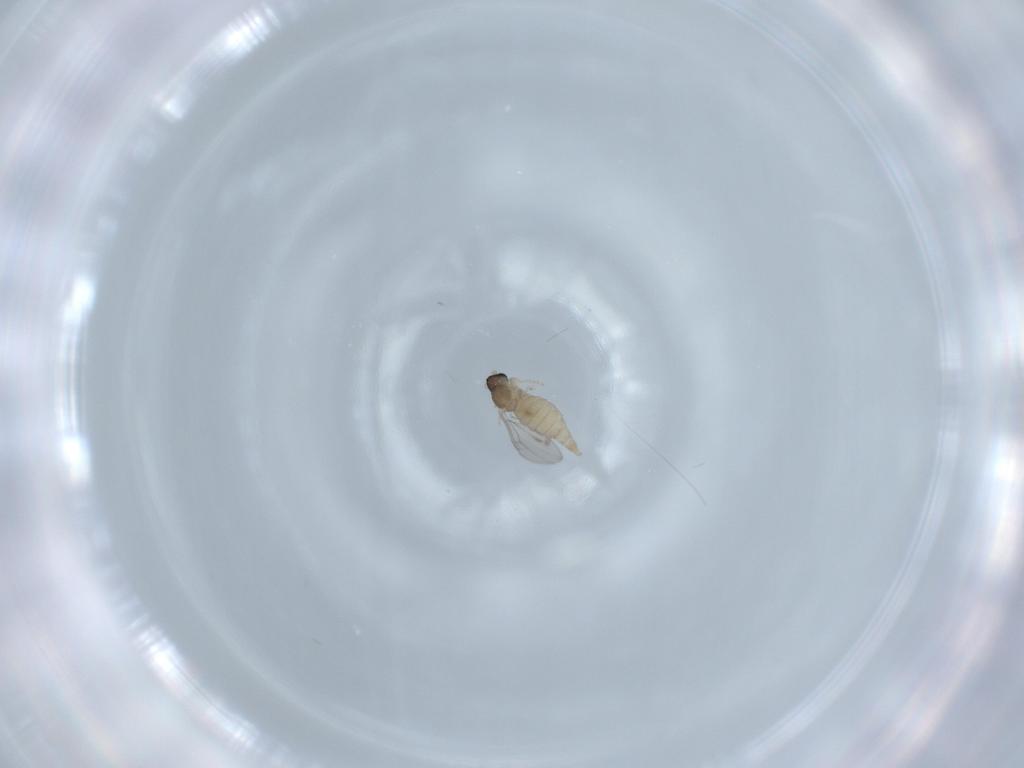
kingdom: Animalia
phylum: Arthropoda
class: Insecta
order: Diptera
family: Cecidomyiidae
